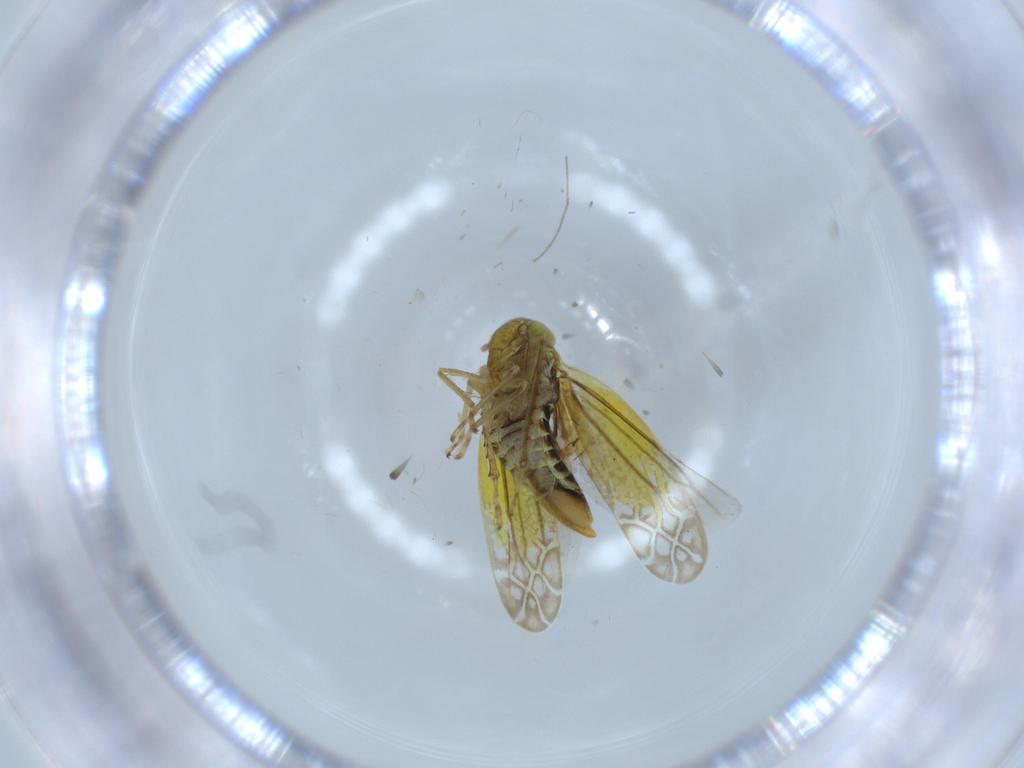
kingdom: Animalia
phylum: Arthropoda
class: Insecta
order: Hemiptera
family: Cicadellidae
